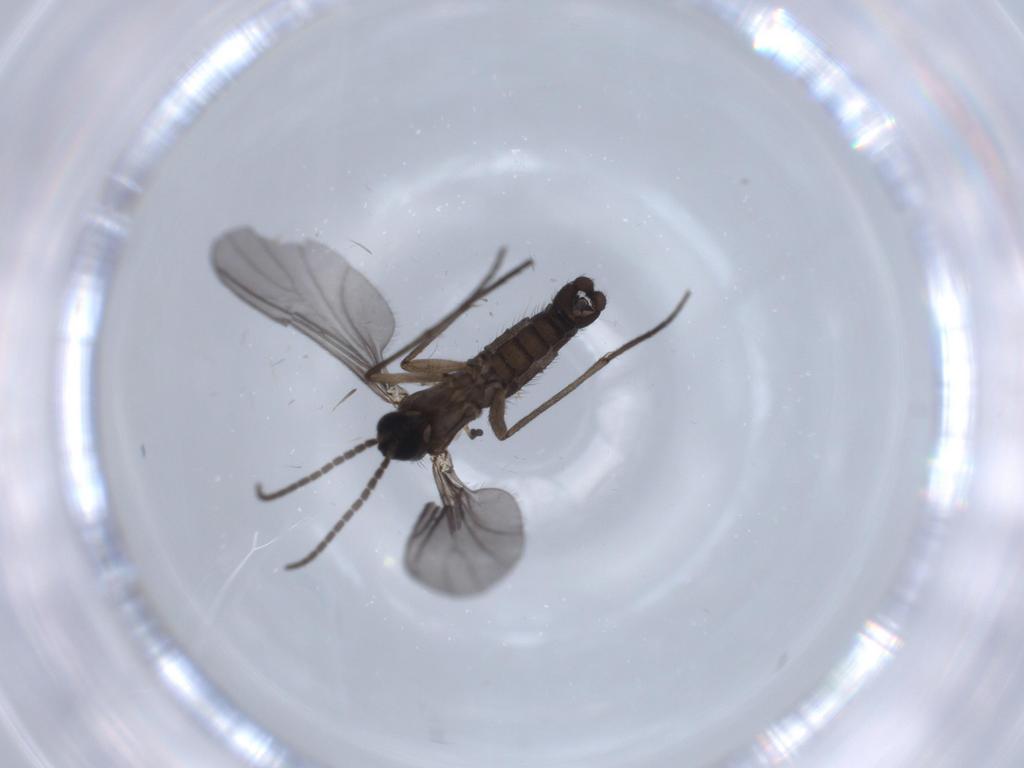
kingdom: Animalia
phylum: Arthropoda
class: Insecta
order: Diptera
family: Sciaridae
